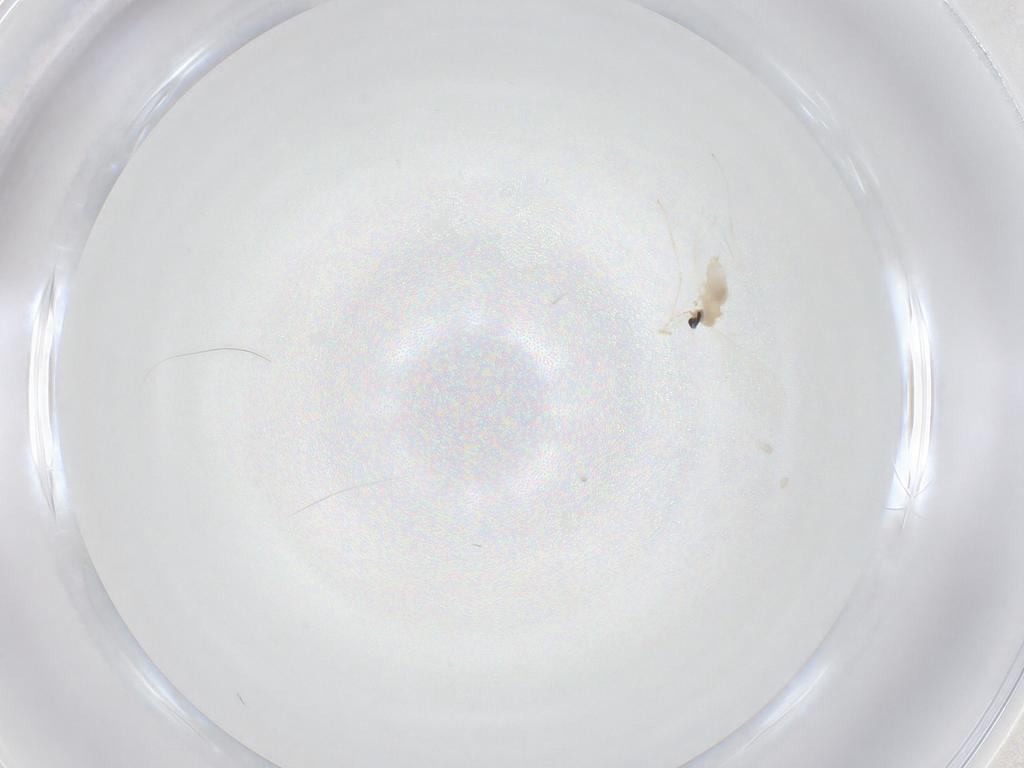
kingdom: Animalia
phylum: Arthropoda
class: Insecta
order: Diptera
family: Cecidomyiidae
